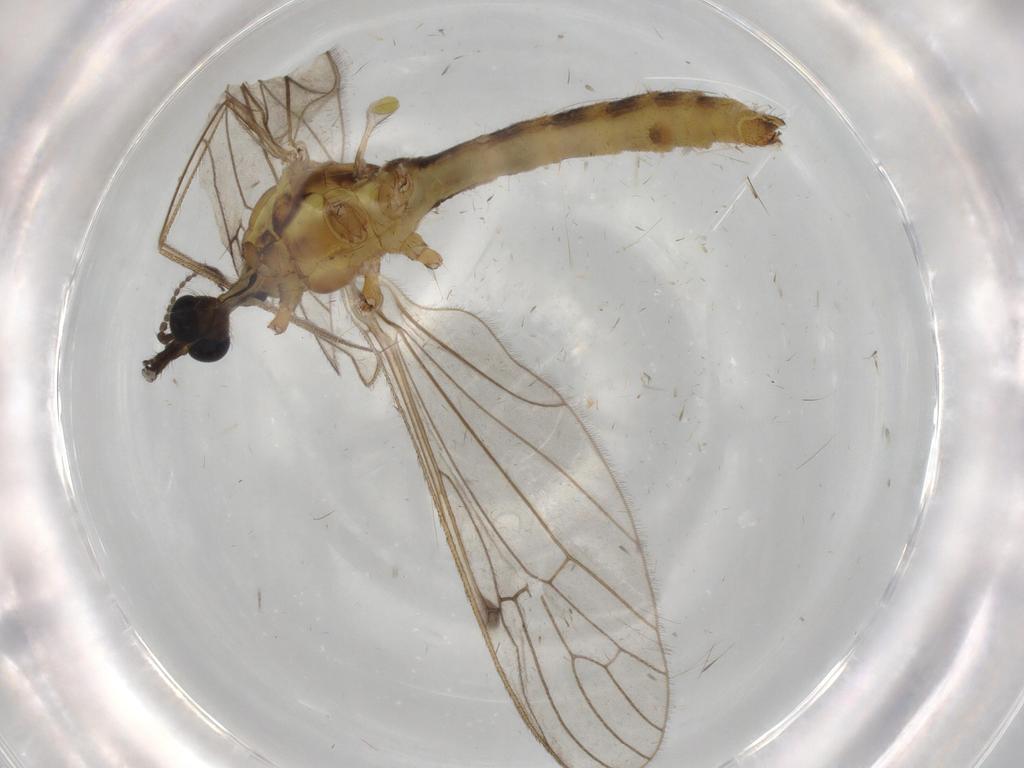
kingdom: Animalia
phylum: Arthropoda
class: Insecta
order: Diptera
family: Limoniidae
